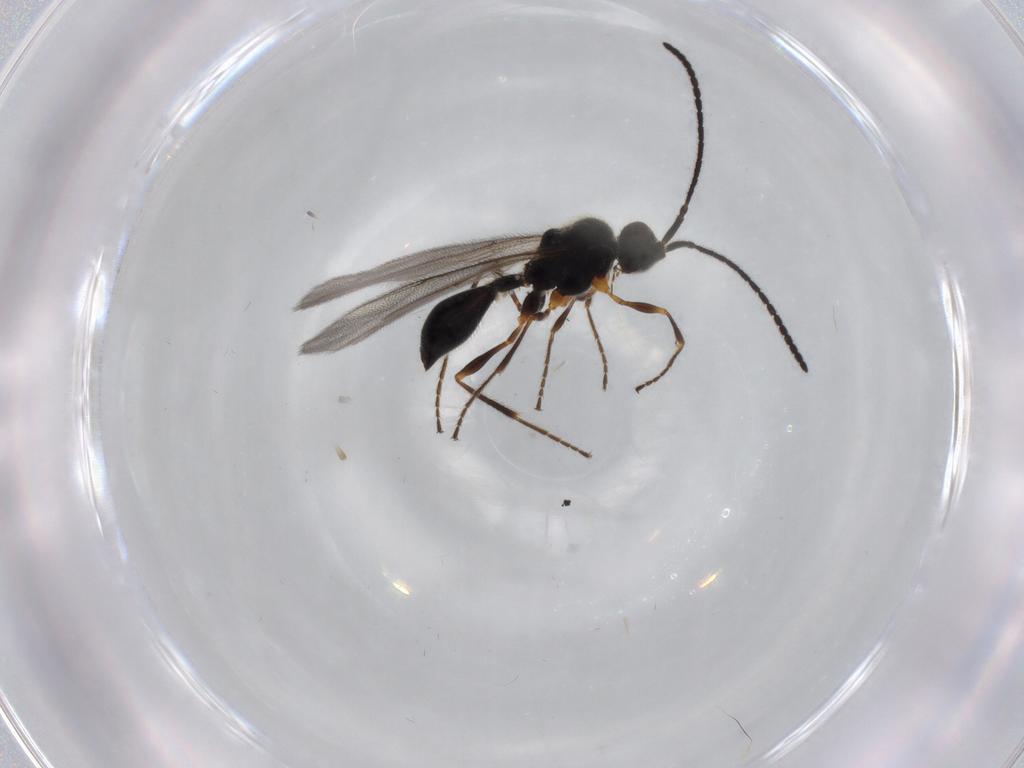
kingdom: Animalia
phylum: Arthropoda
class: Insecta
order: Hymenoptera
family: Diapriidae
